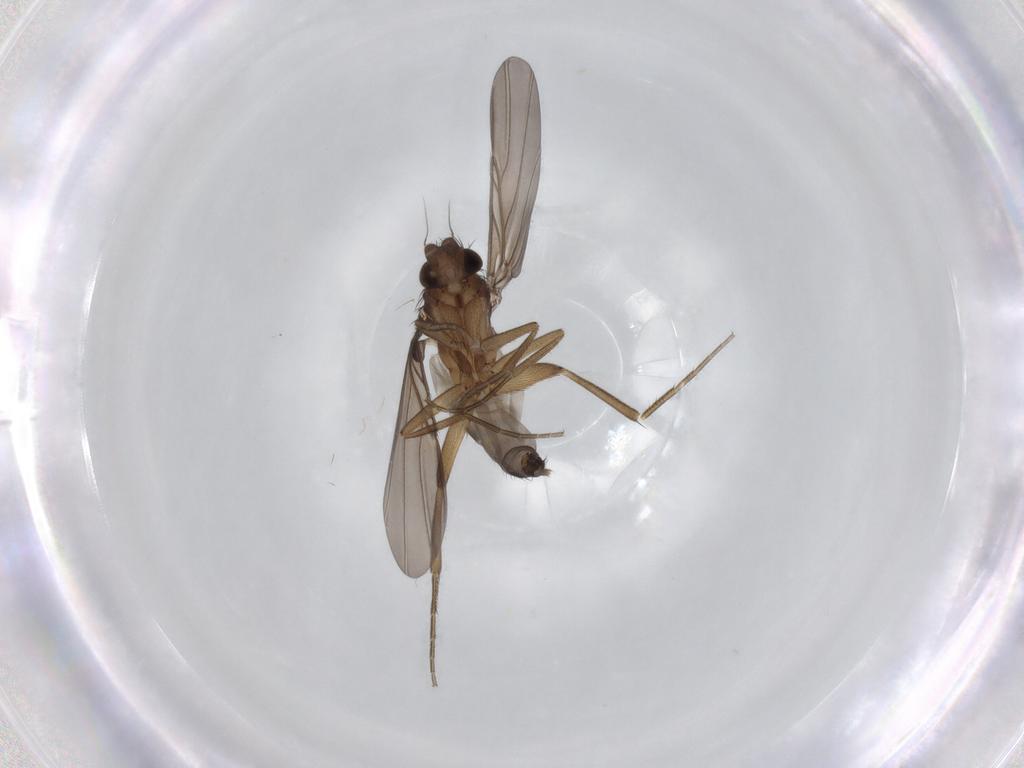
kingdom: Animalia
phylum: Arthropoda
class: Insecta
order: Diptera
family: Phoridae
